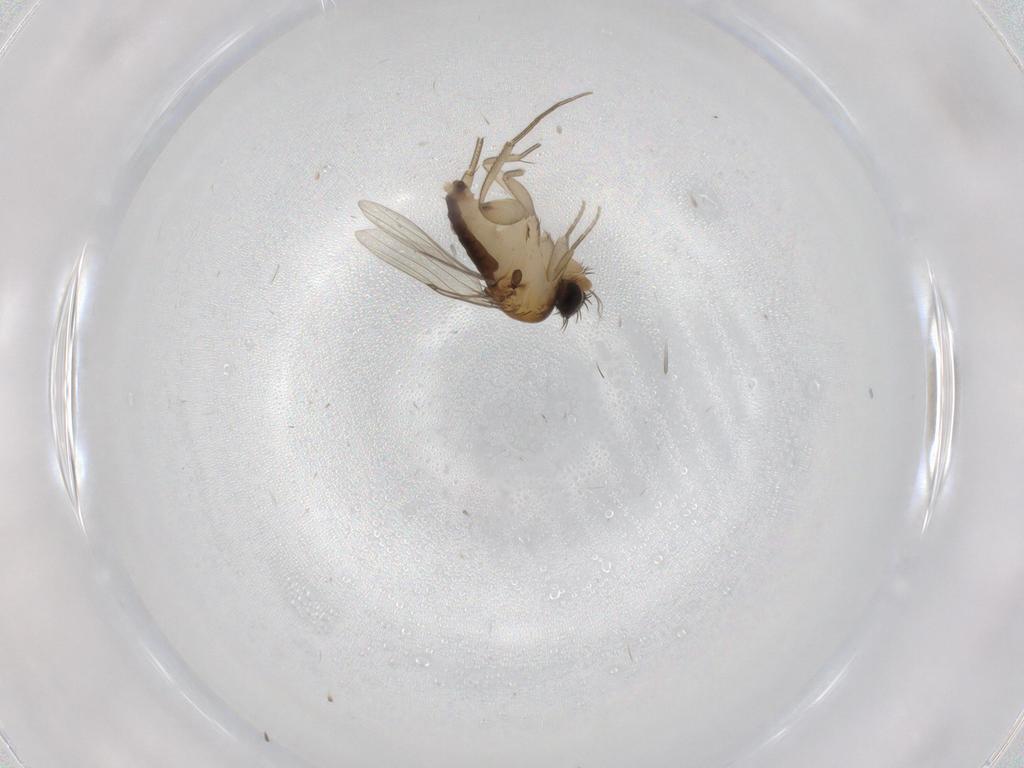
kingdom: Animalia
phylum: Arthropoda
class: Insecta
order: Diptera
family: Phoridae
